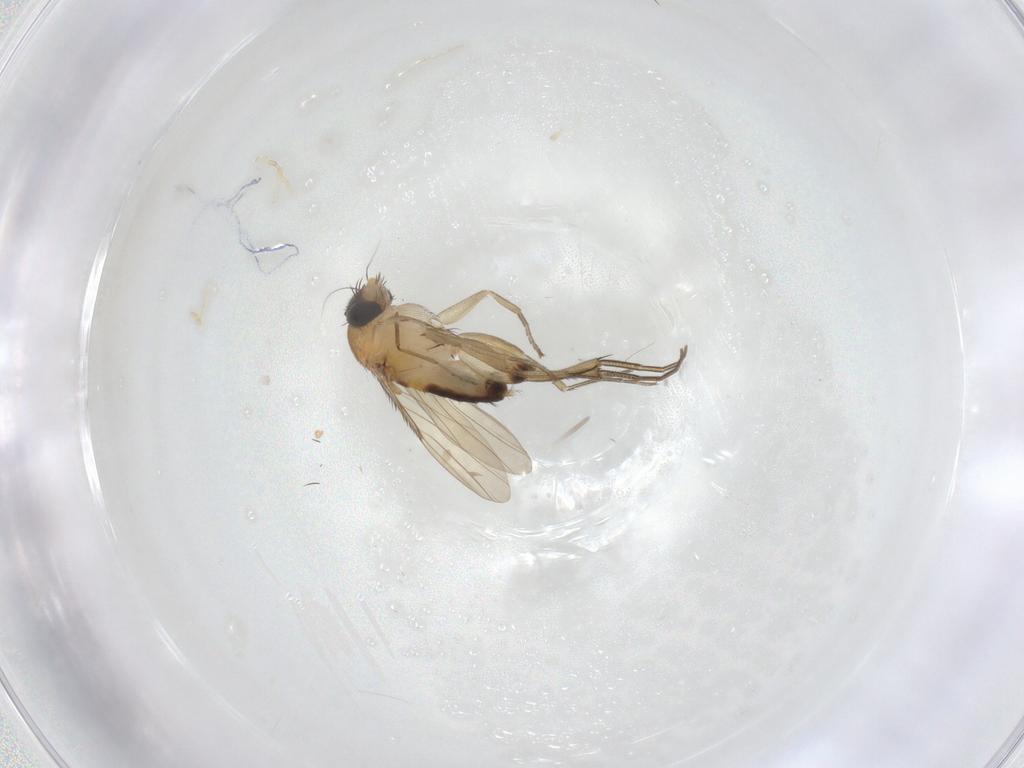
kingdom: Animalia
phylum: Arthropoda
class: Insecta
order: Diptera
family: Phoridae
